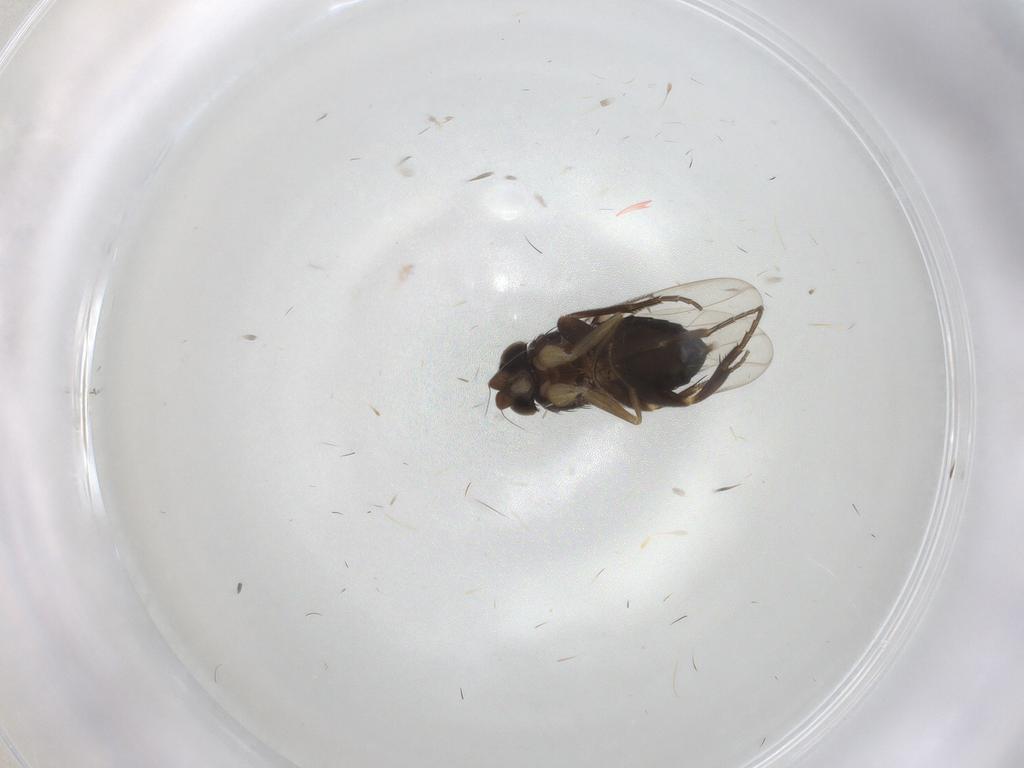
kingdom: Animalia
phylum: Arthropoda
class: Insecta
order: Diptera
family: Phoridae
